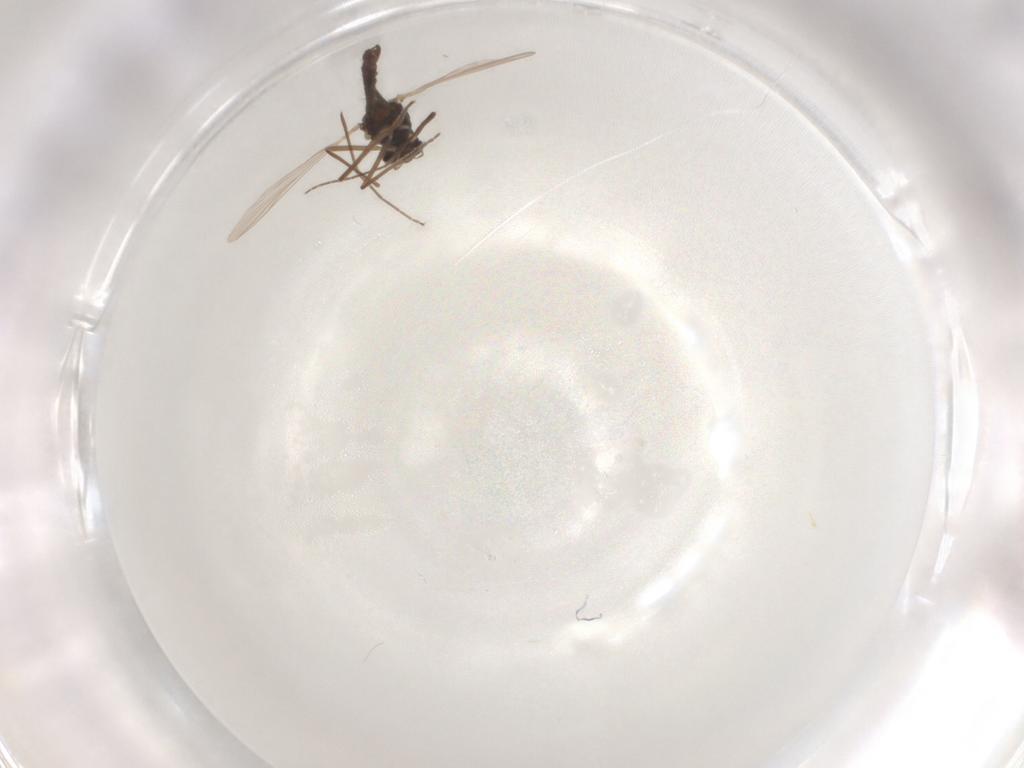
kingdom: Animalia
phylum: Arthropoda
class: Insecta
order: Diptera
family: Chironomidae
